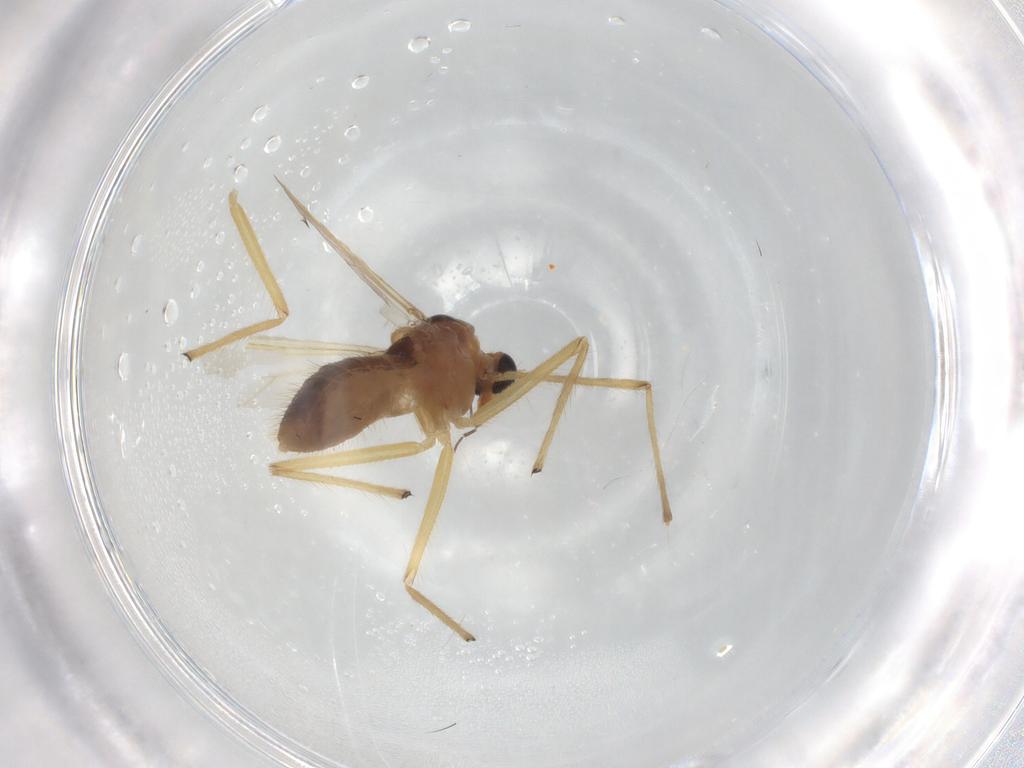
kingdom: Animalia
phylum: Arthropoda
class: Insecta
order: Diptera
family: Chironomidae
